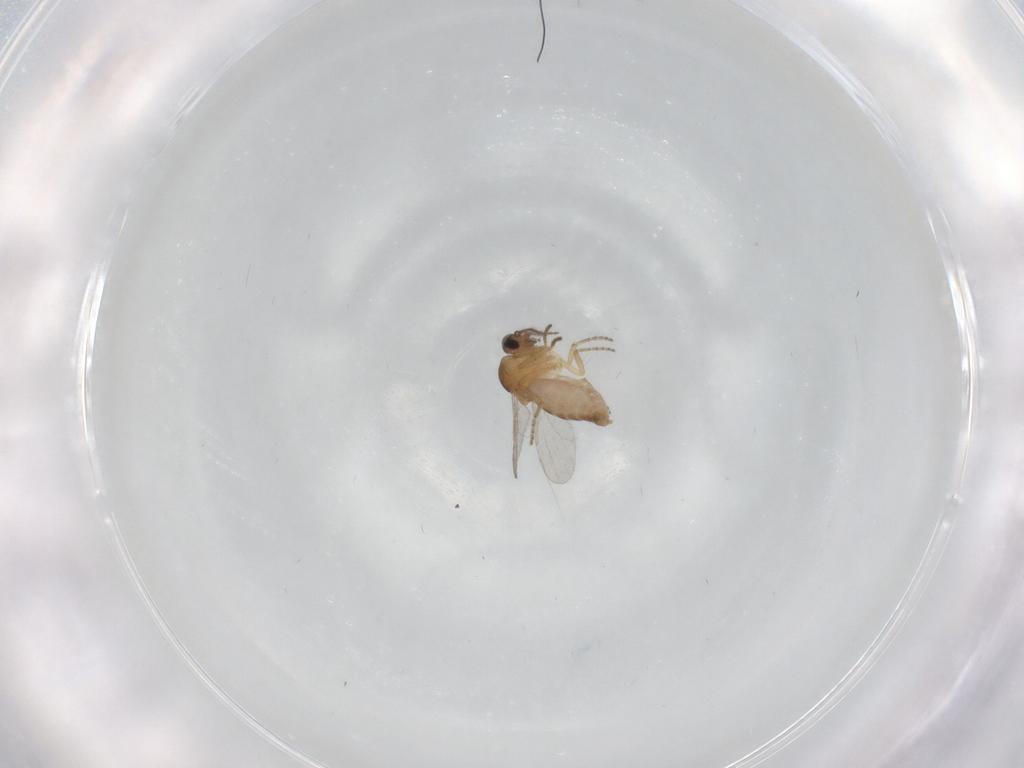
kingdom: Animalia
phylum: Arthropoda
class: Insecta
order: Diptera
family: Ceratopogonidae
